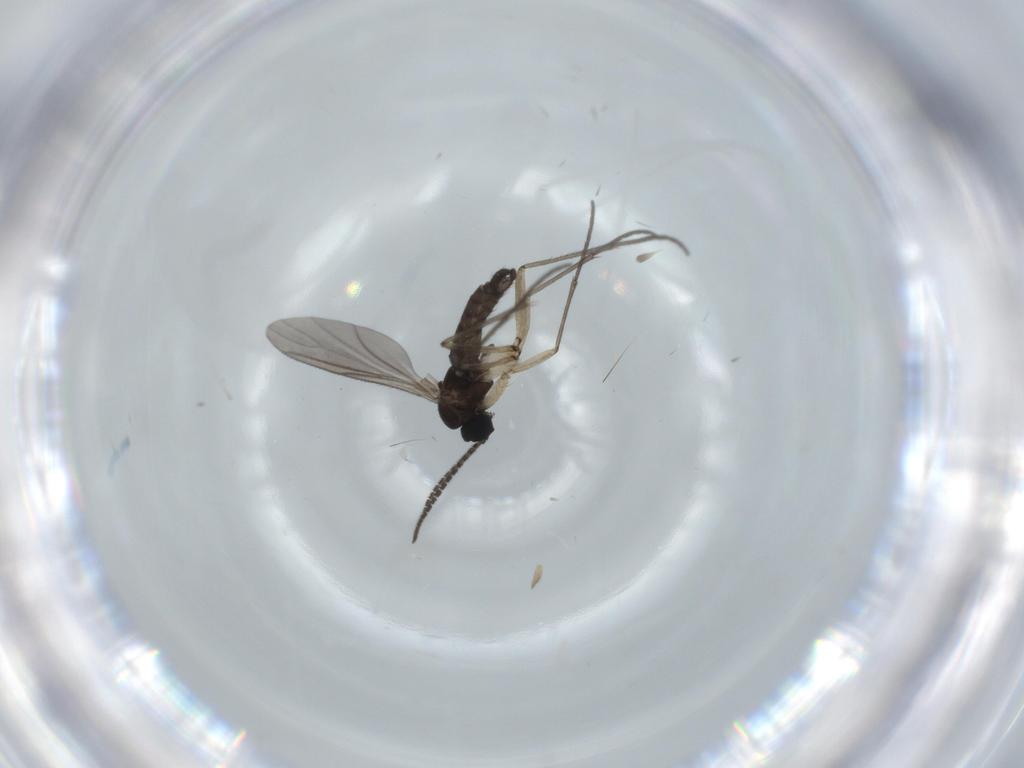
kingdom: Animalia
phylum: Arthropoda
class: Insecta
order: Diptera
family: Sciaridae
